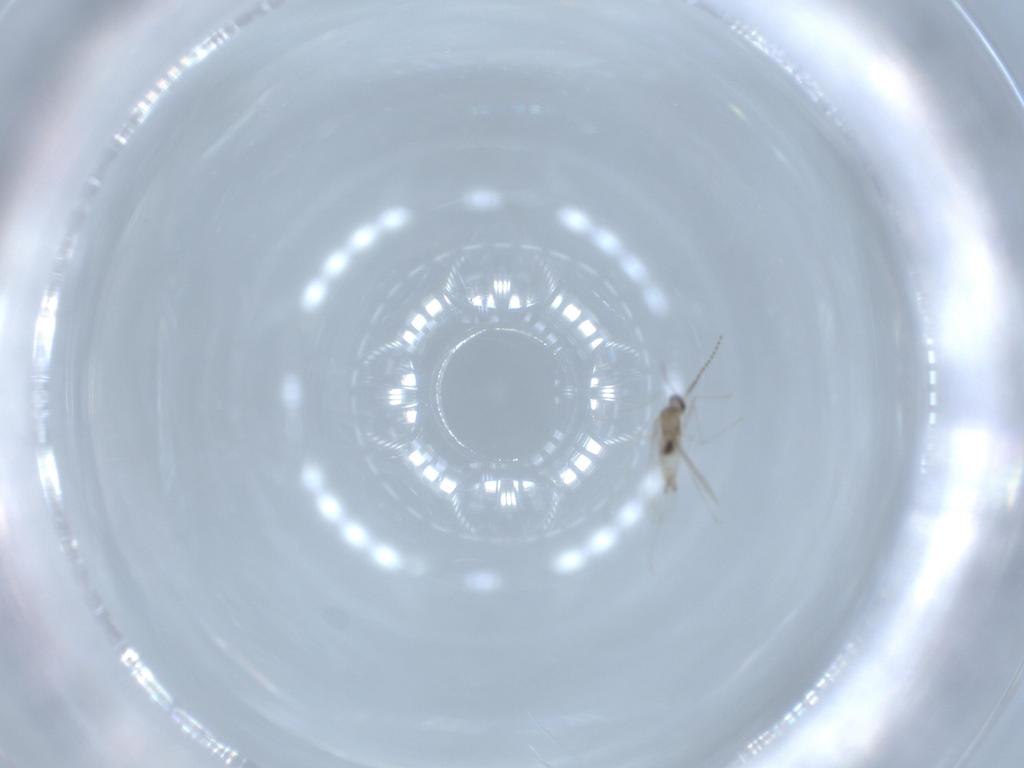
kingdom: Animalia
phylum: Arthropoda
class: Insecta
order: Diptera
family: Cecidomyiidae
